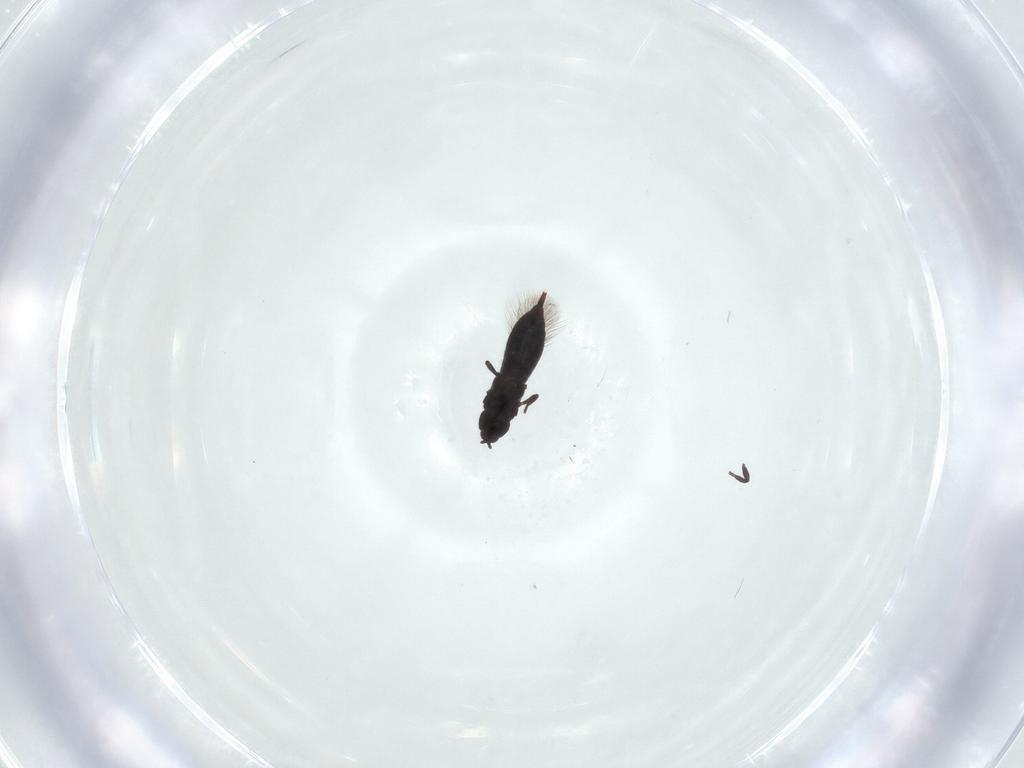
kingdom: Animalia
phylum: Arthropoda
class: Insecta
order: Thysanoptera
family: Phlaeothripidae
